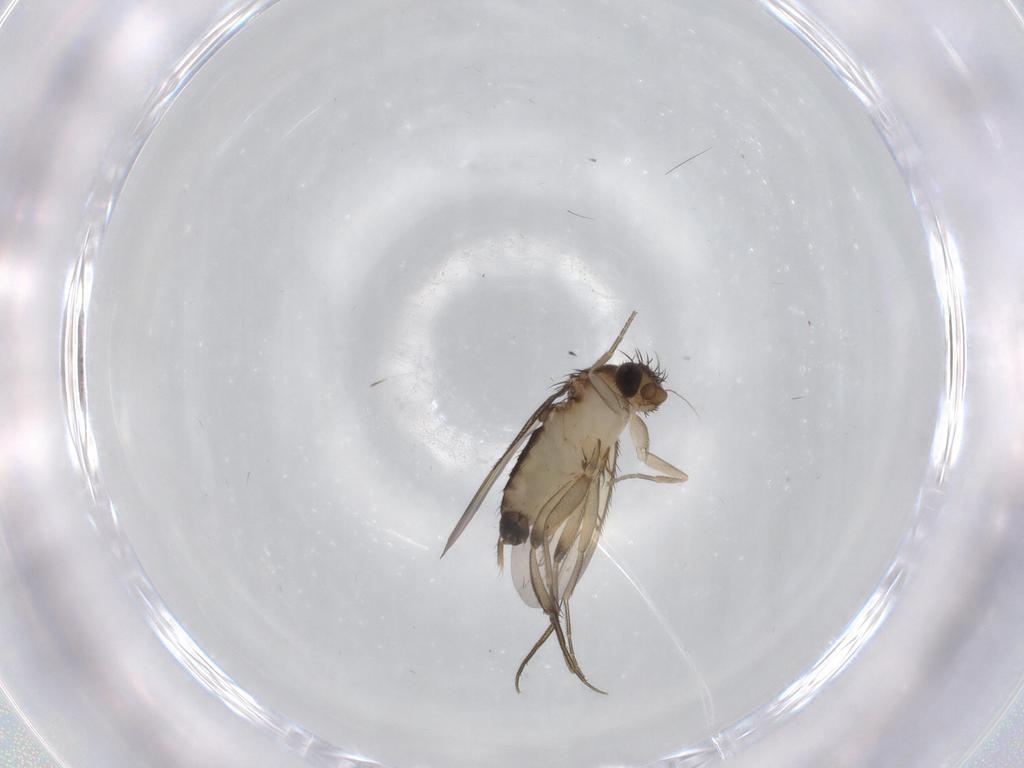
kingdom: Animalia
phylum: Arthropoda
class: Insecta
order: Diptera
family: Phoridae
